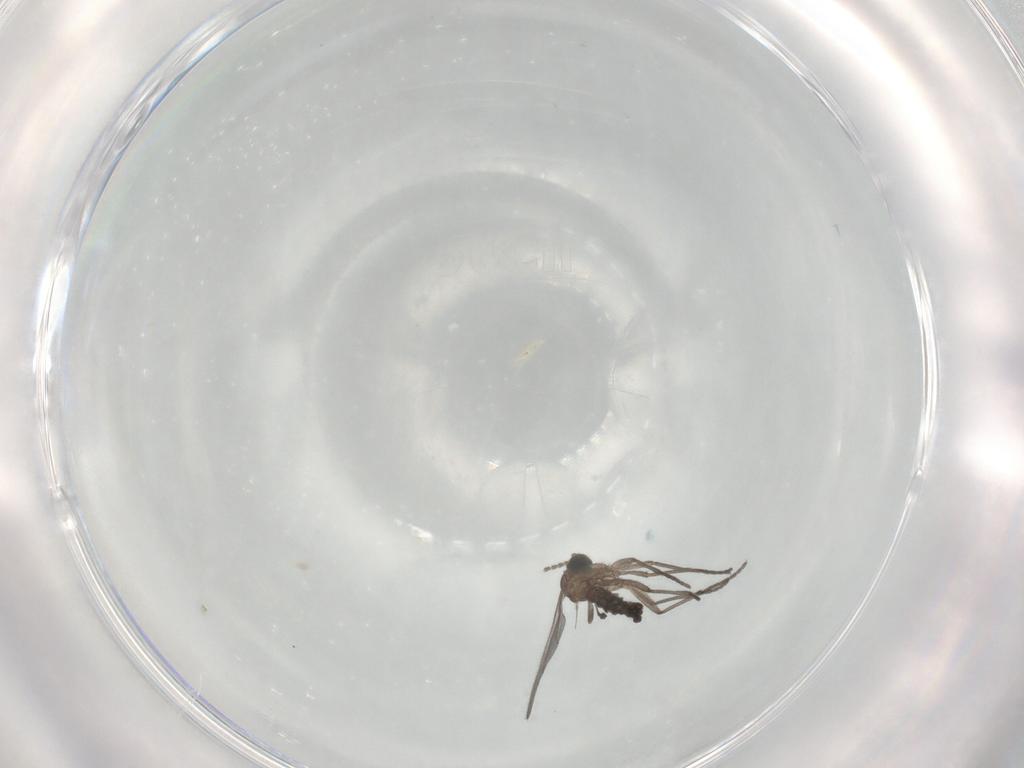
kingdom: Animalia
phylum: Arthropoda
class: Insecta
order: Diptera
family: Sciaridae
